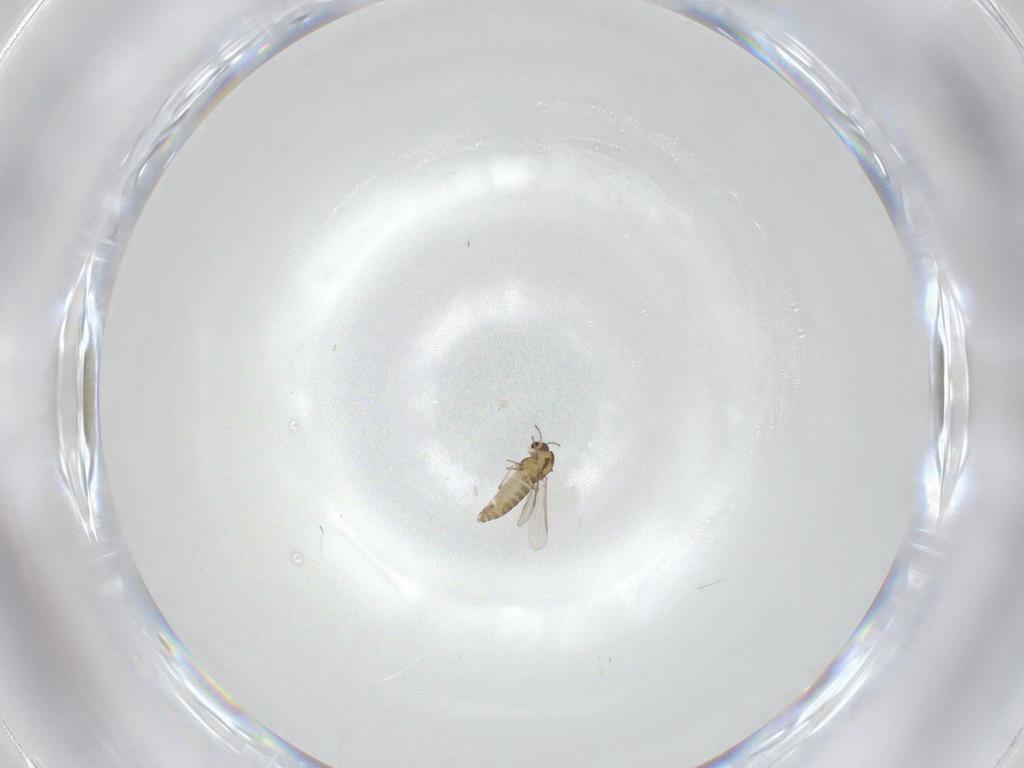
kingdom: Animalia
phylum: Arthropoda
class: Insecta
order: Diptera
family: Chironomidae
